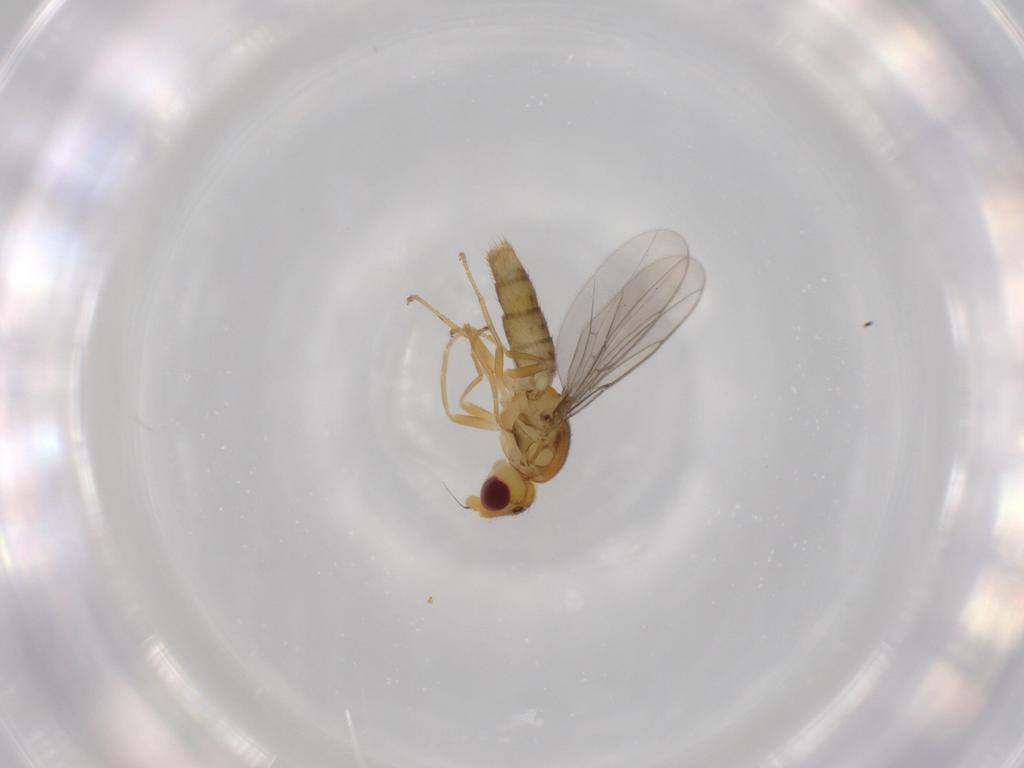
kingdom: Animalia
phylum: Arthropoda
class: Insecta
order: Diptera
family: Chloropidae
